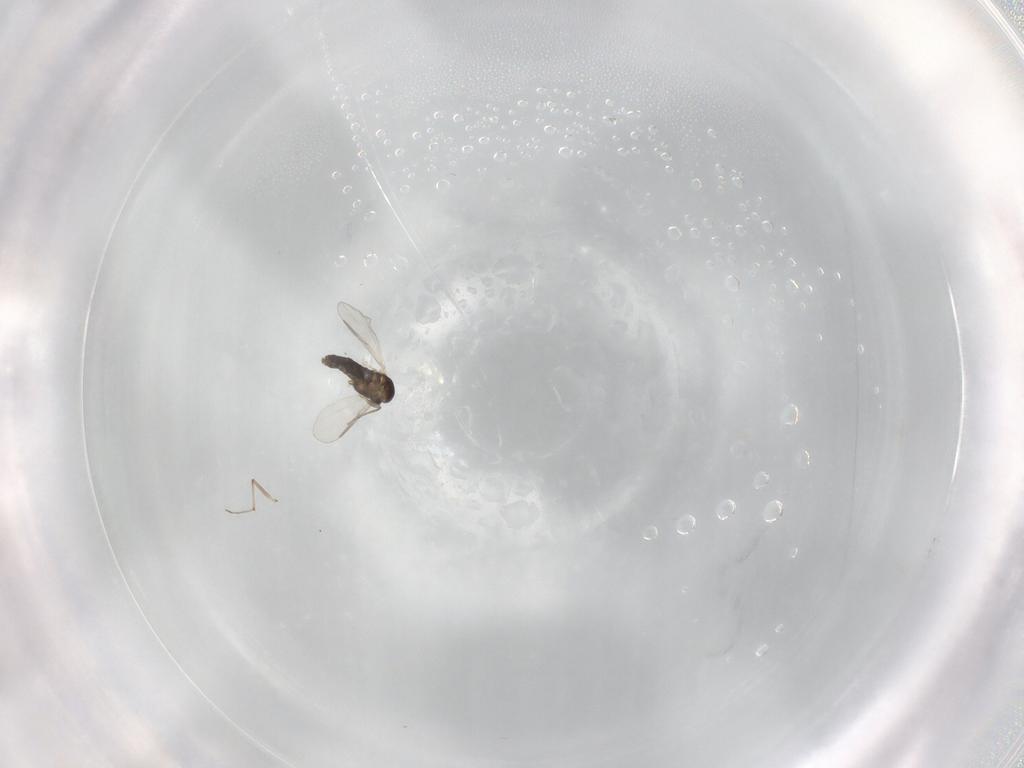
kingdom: Animalia
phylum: Arthropoda
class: Insecta
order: Diptera
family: Chironomidae
